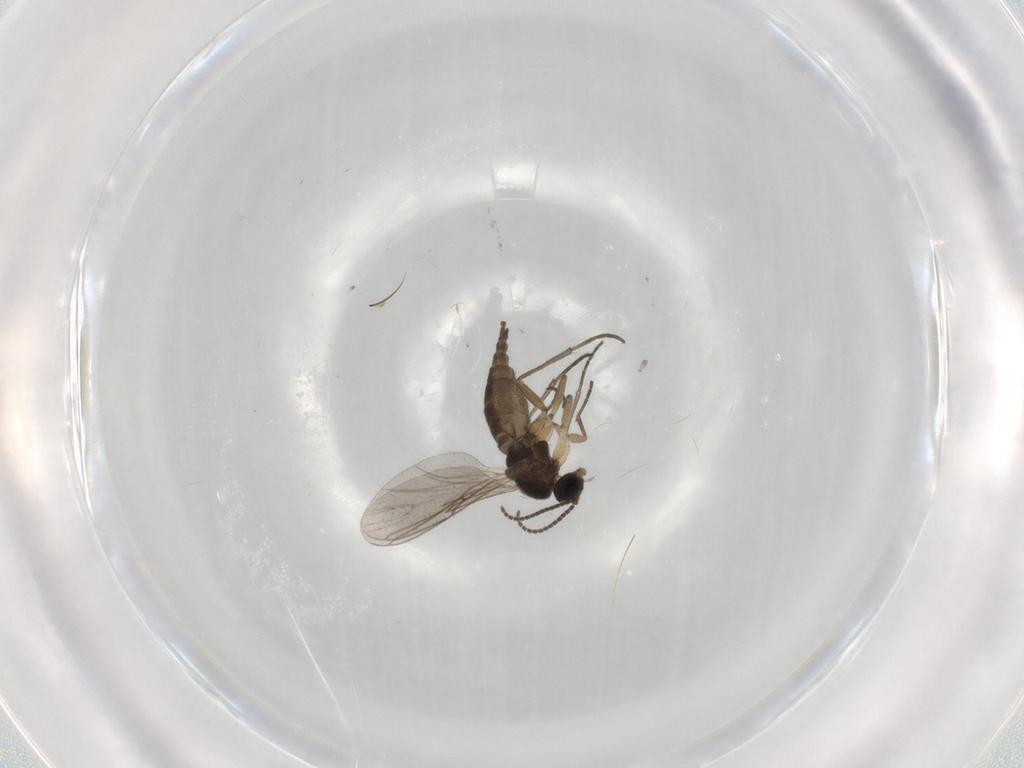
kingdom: Animalia
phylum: Arthropoda
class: Insecta
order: Diptera
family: Sciaridae
